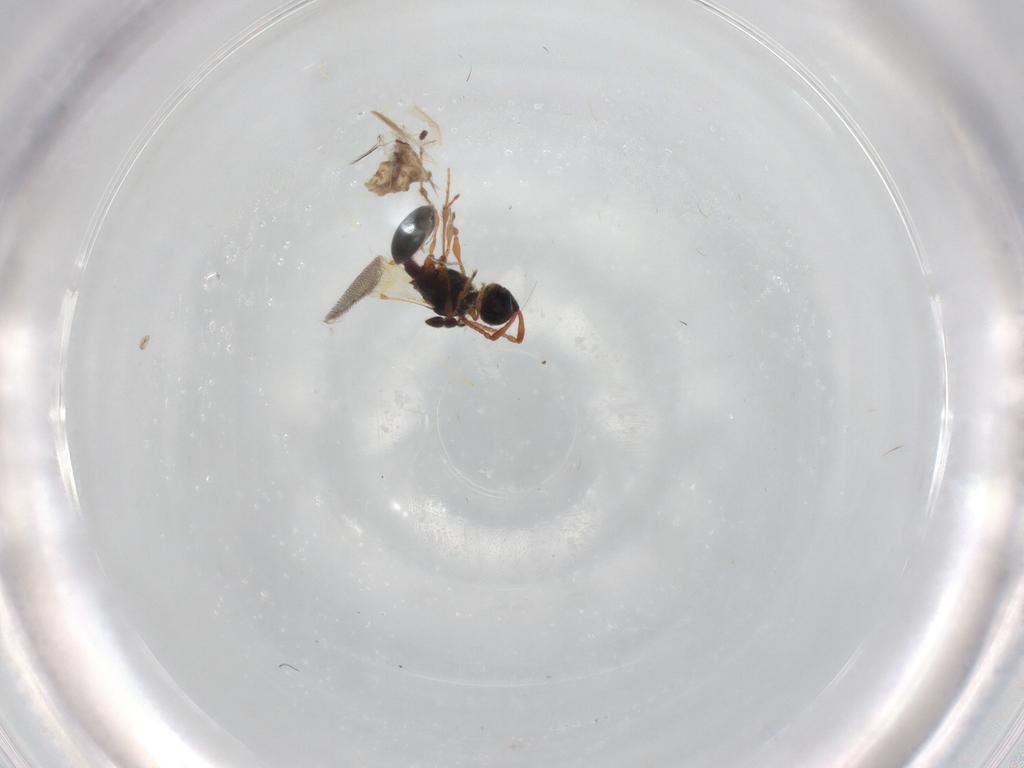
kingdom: Animalia
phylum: Arthropoda
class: Insecta
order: Hymenoptera
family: Diapriidae
